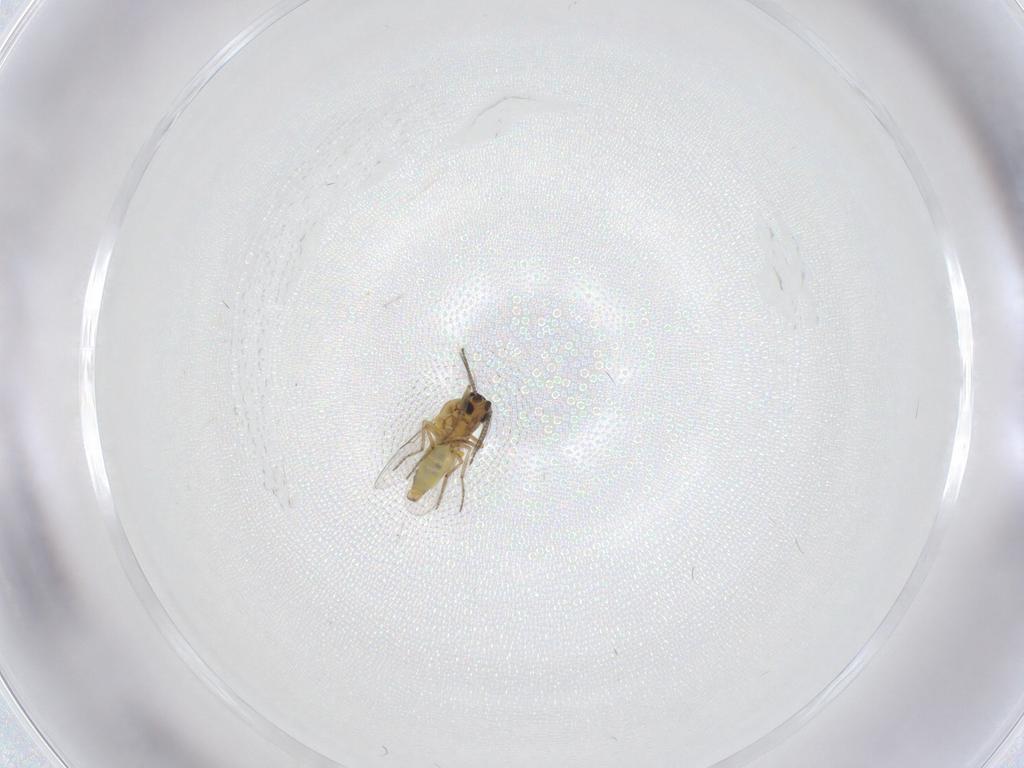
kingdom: Animalia
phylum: Arthropoda
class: Insecta
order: Diptera
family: Ceratopogonidae
